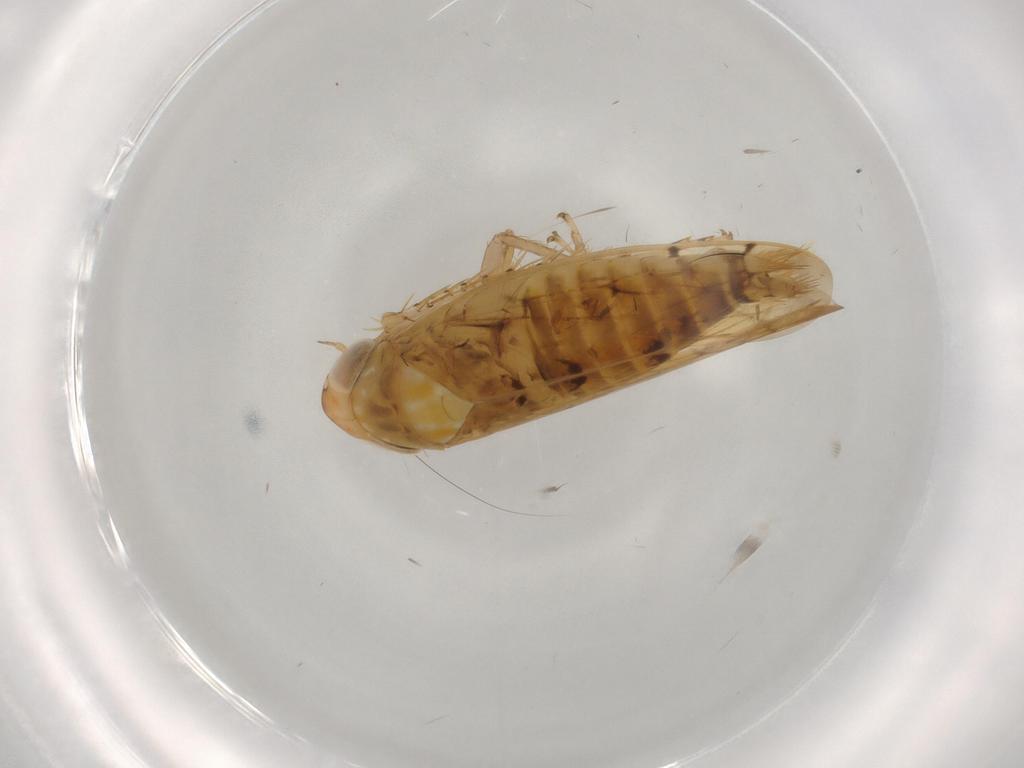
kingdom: Animalia
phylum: Arthropoda
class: Insecta
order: Hemiptera
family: Cicadellidae
